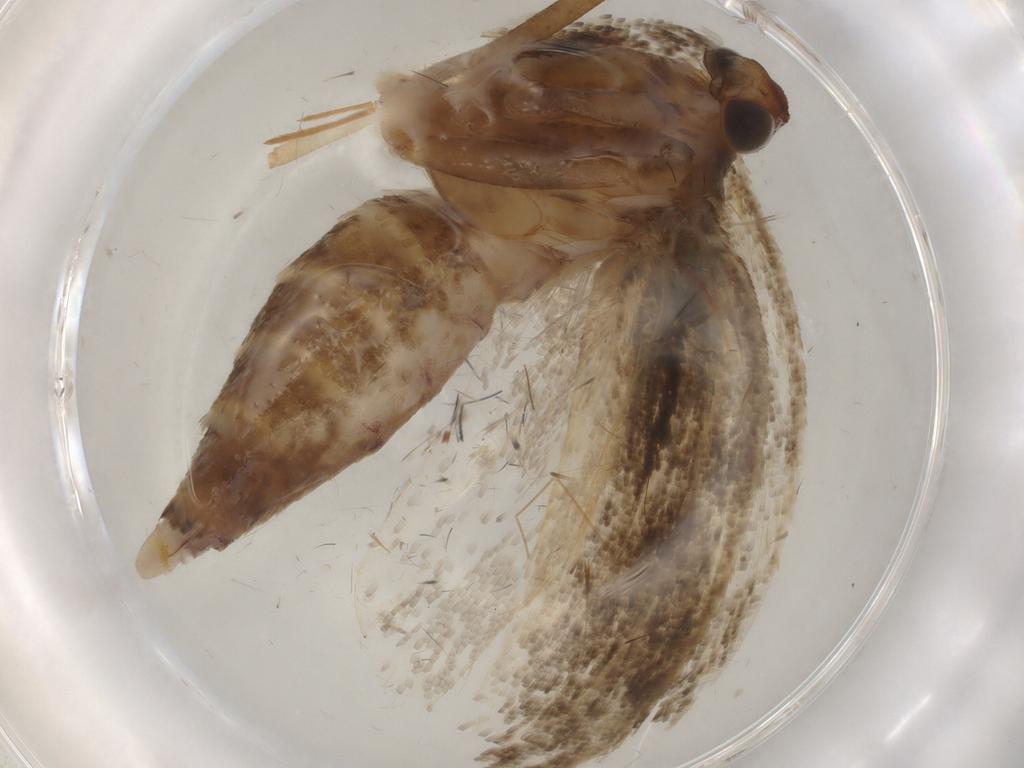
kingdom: Animalia
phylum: Arthropoda
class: Insecta
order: Lepidoptera
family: Gelechiidae
